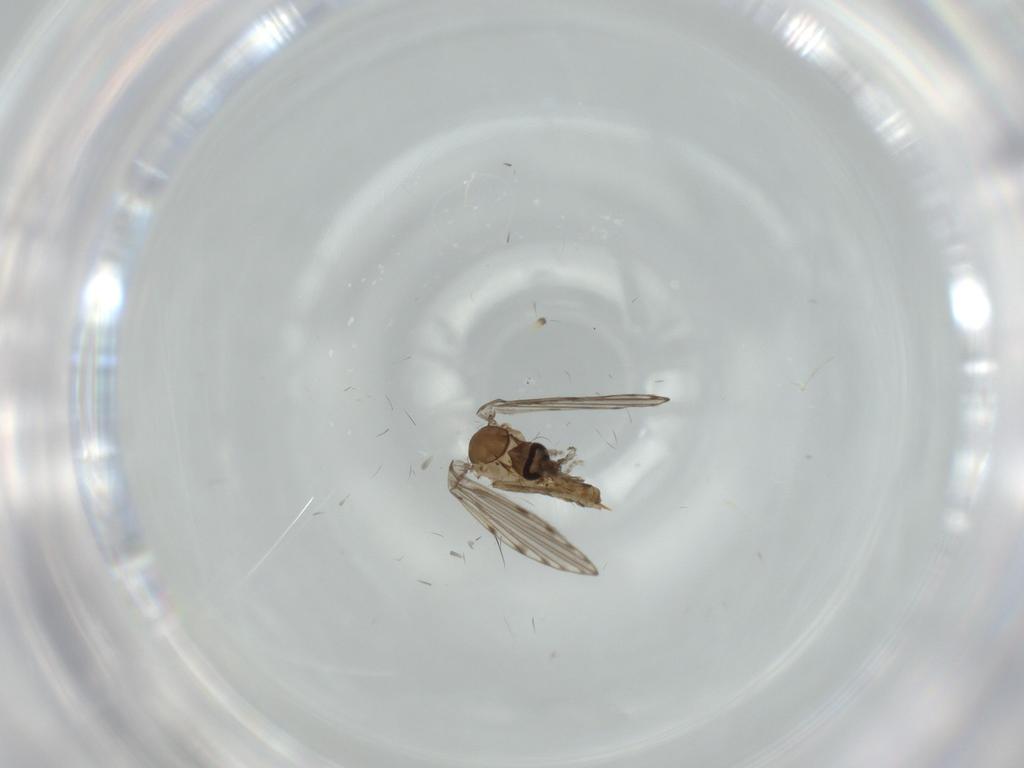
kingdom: Animalia
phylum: Arthropoda
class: Insecta
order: Diptera
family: Psychodidae
